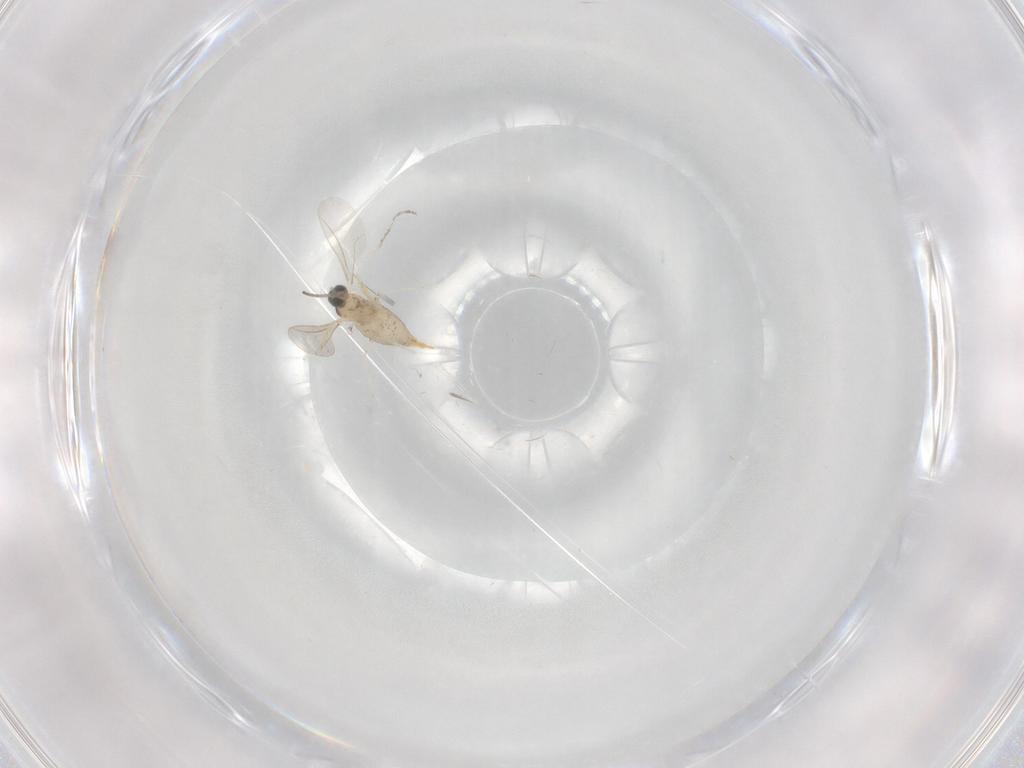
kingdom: Animalia
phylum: Arthropoda
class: Insecta
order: Diptera
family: Cecidomyiidae
